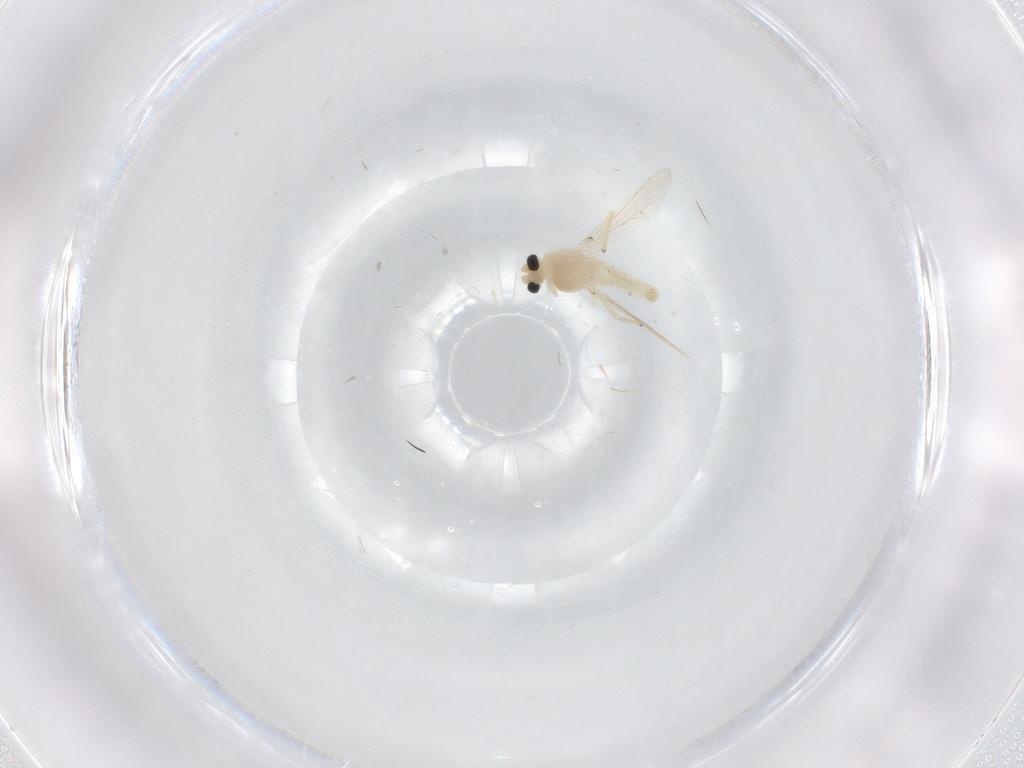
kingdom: Animalia
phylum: Arthropoda
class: Insecta
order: Diptera
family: Chironomidae
